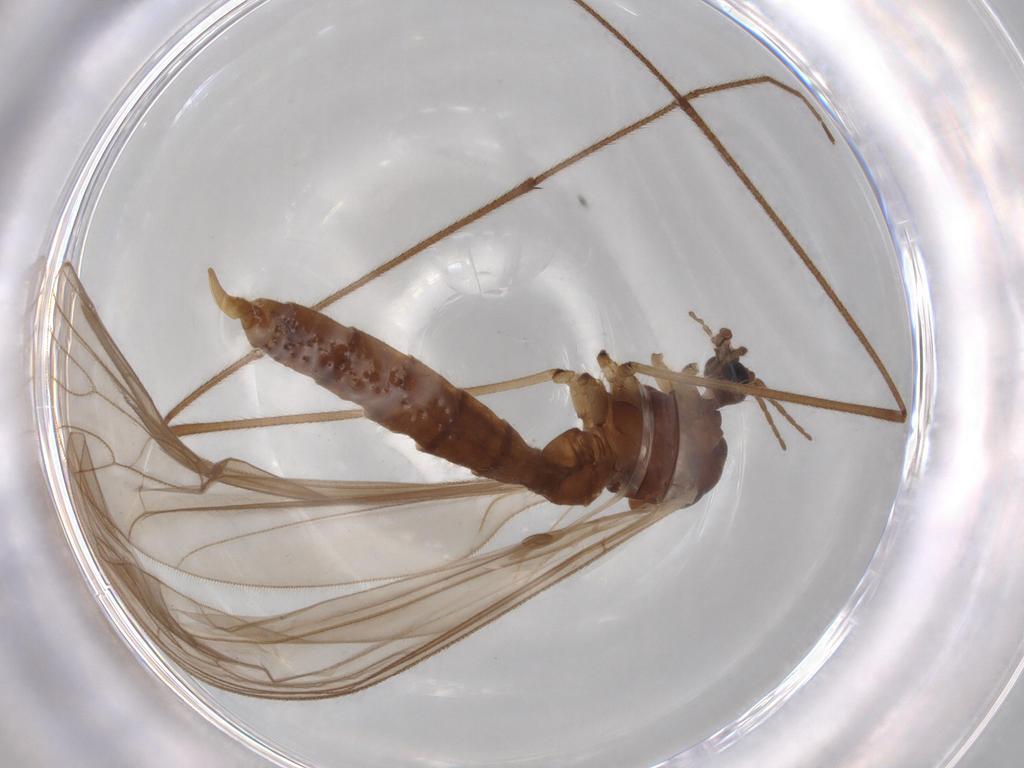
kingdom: Animalia
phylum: Arthropoda
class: Insecta
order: Diptera
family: Trichoceridae
